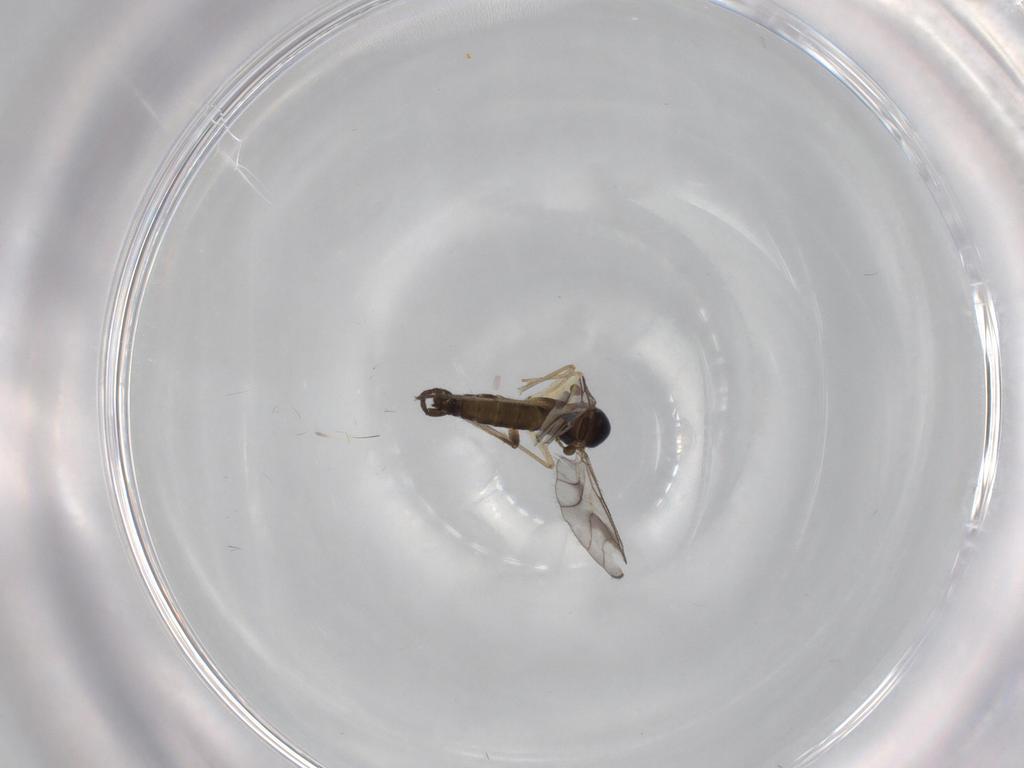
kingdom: Animalia
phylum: Arthropoda
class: Insecta
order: Diptera
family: Sciaridae
